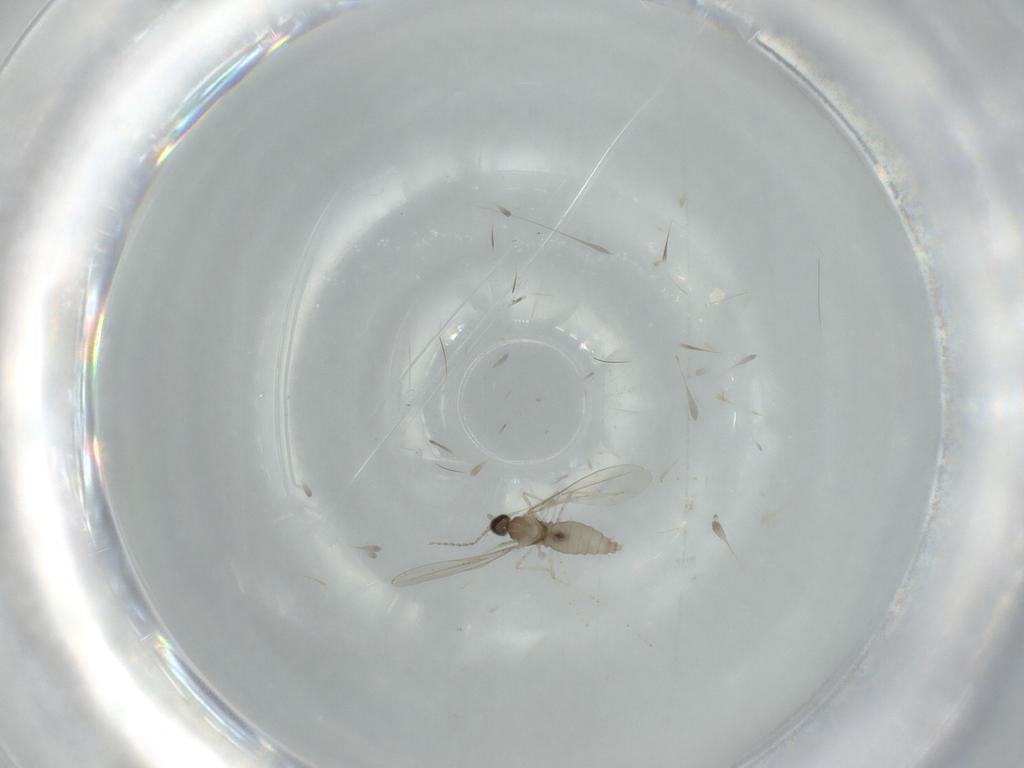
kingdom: Animalia
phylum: Arthropoda
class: Insecta
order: Diptera
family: Cecidomyiidae
